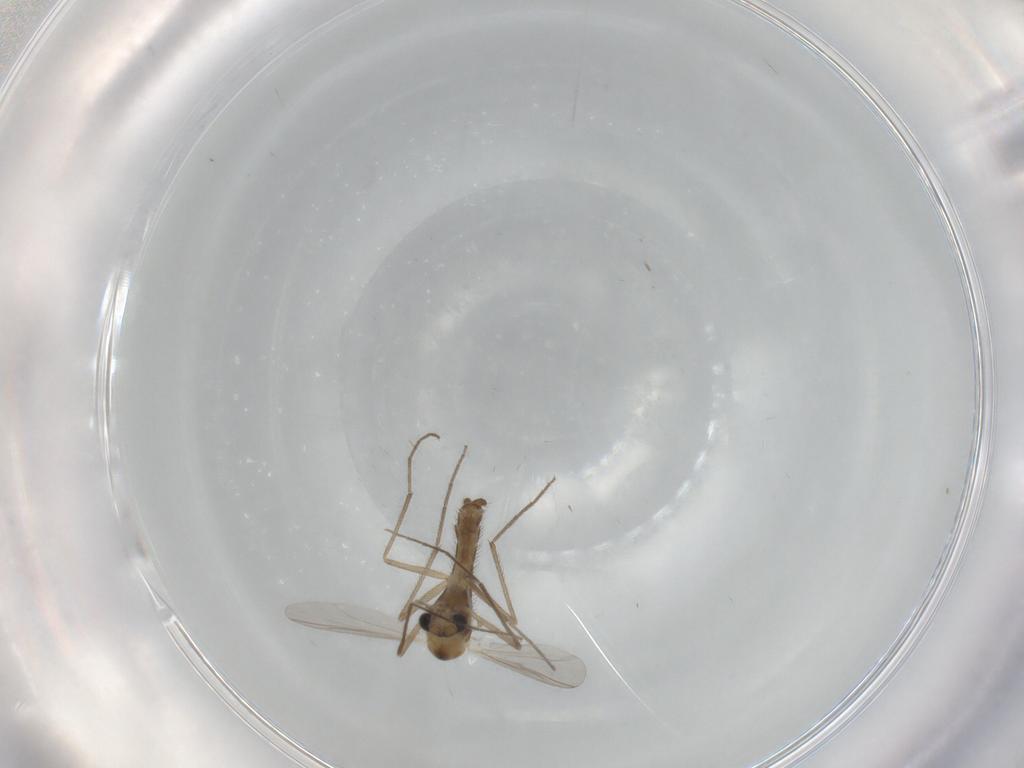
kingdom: Animalia
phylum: Arthropoda
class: Insecta
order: Diptera
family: Chironomidae
